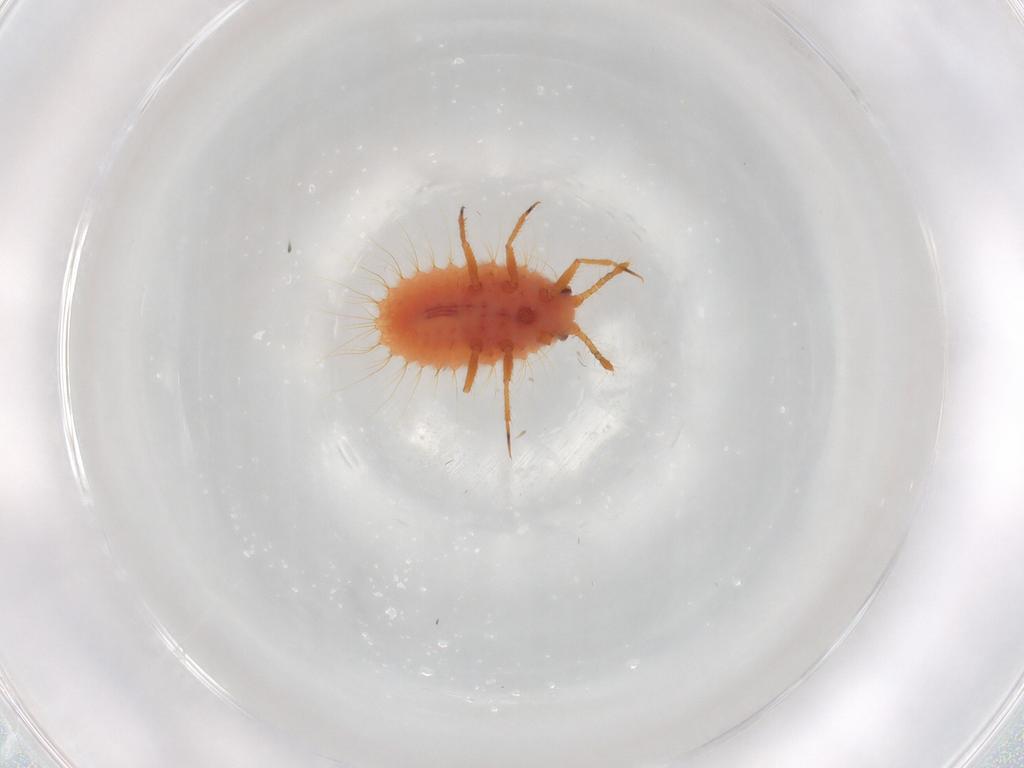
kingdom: Animalia
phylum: Arthropoda
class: Insecta
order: Hemiptera
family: Coccoidea_incertae_sedis
